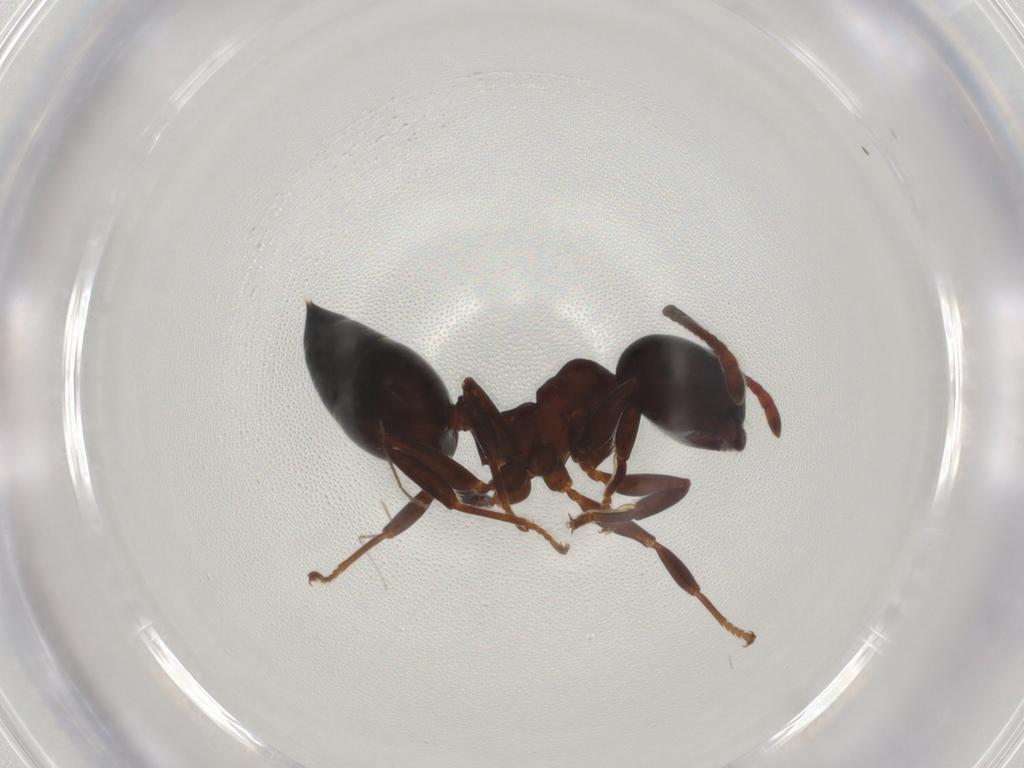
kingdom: Animalia
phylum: Arthropoda
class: Insecta
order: Hymenoptera
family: Formicidae
